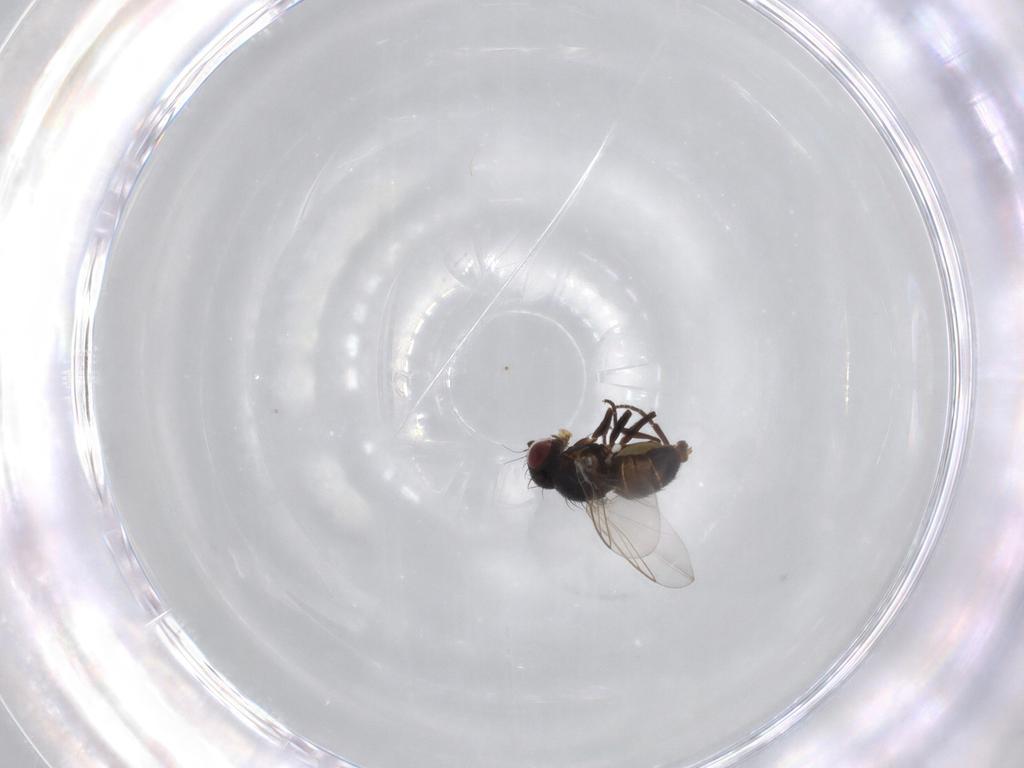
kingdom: Animalia
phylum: Arthropoda
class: Insecta
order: Diptera
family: Agromyzidae
